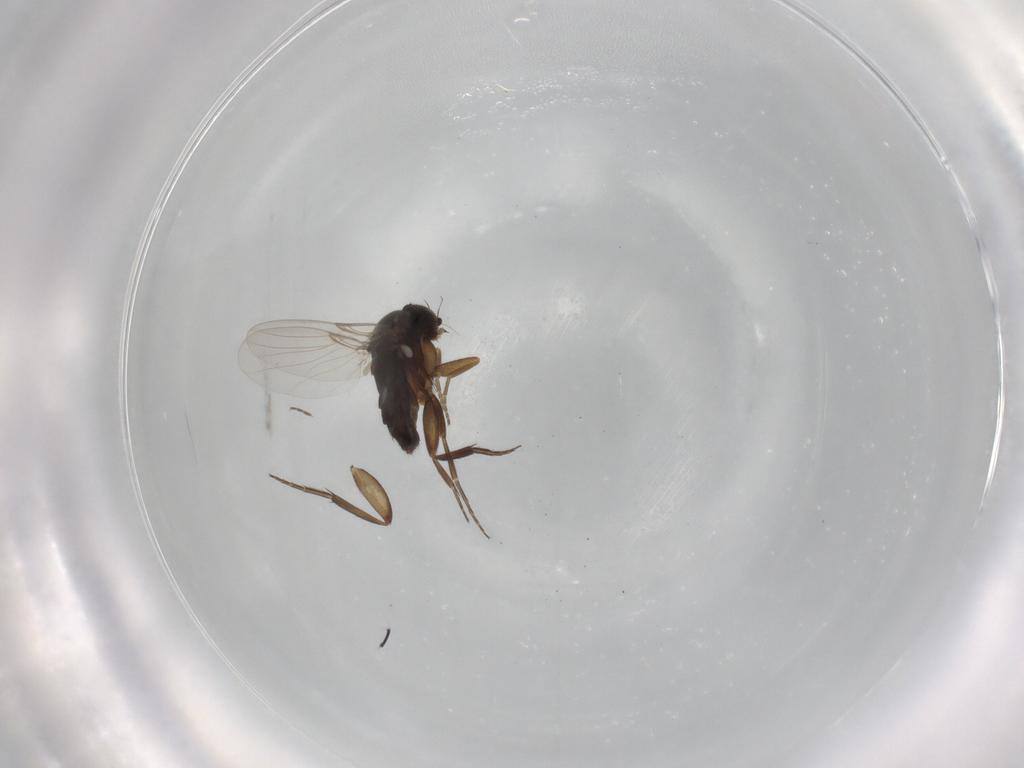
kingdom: Animalia
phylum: Arthropoda
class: Insecta
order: Diptera
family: Phoridae
